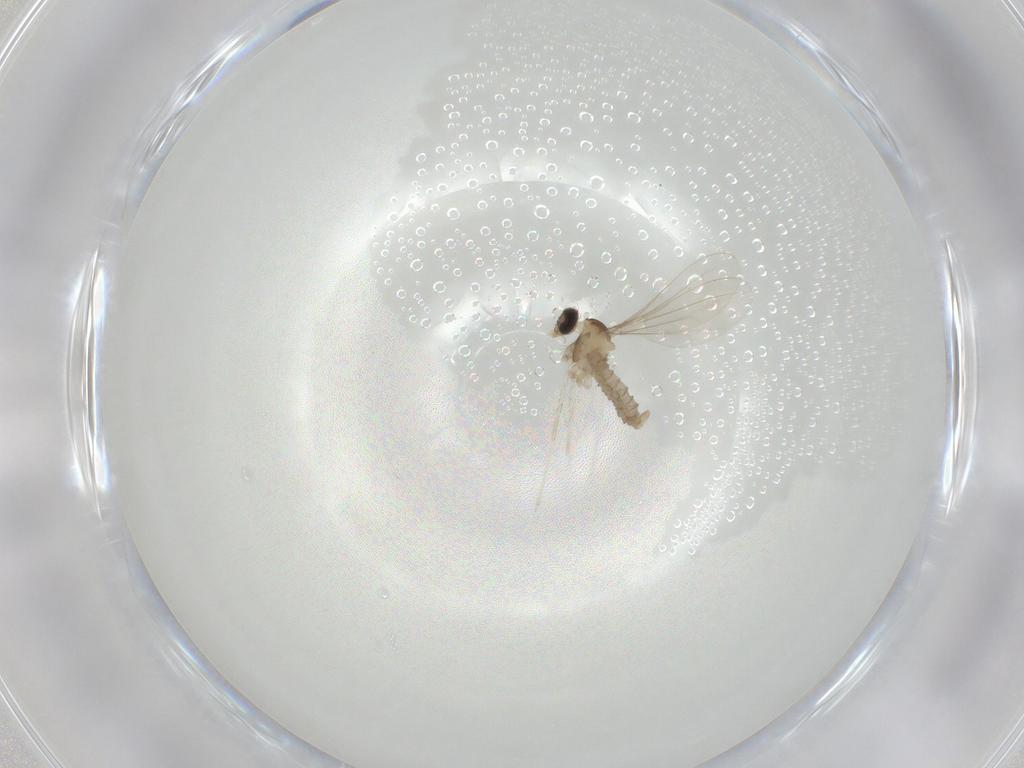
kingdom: Animalia
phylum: Arthropoda
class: Insecta
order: Diptera
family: Cecidomyiidae
